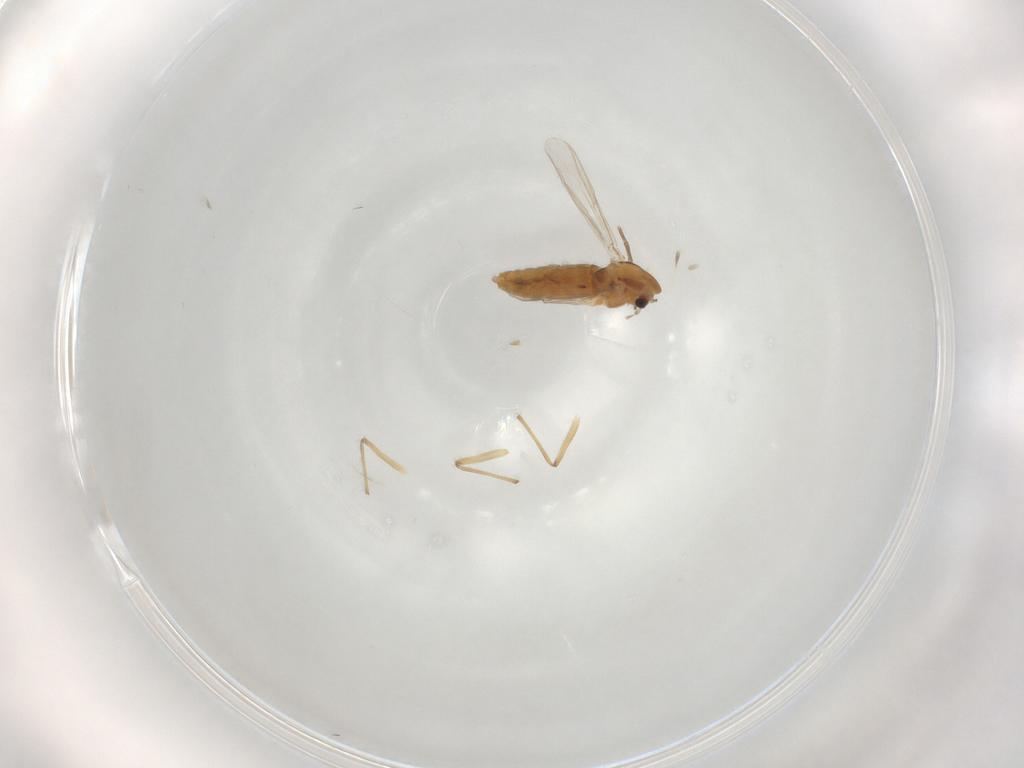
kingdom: Animalia
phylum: Arthropoda
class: Insecta
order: Diptera
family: Chironomidae
